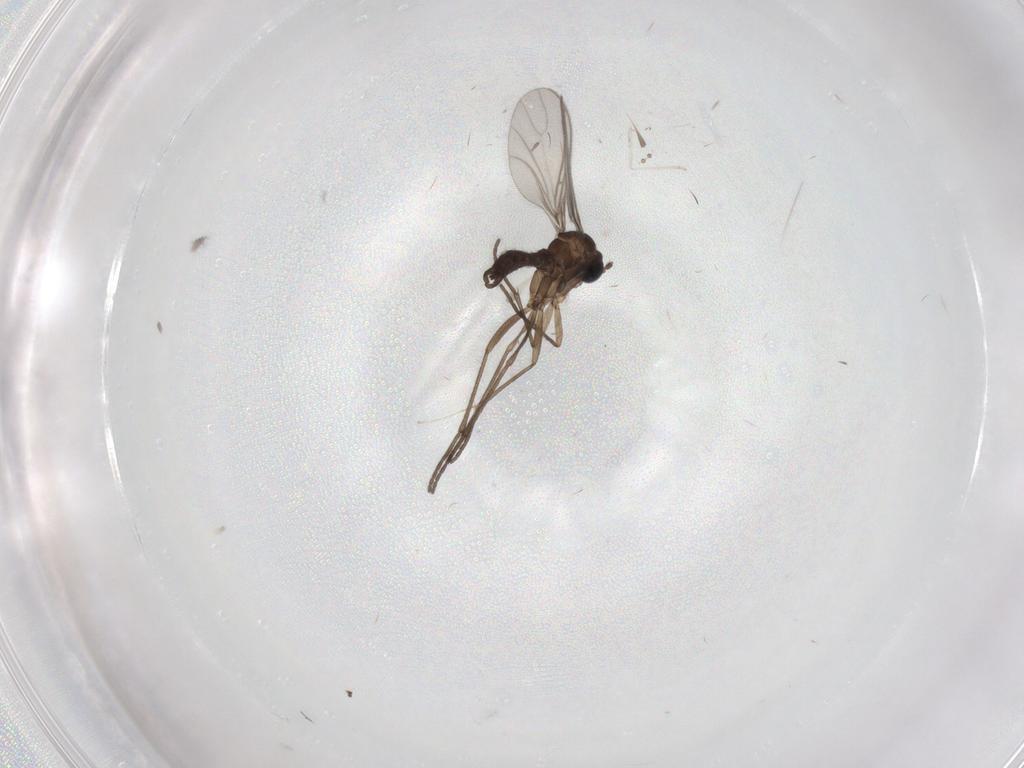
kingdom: Animalia
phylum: Arthropoda
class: Insecta
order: Diptera
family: Sciaridae
